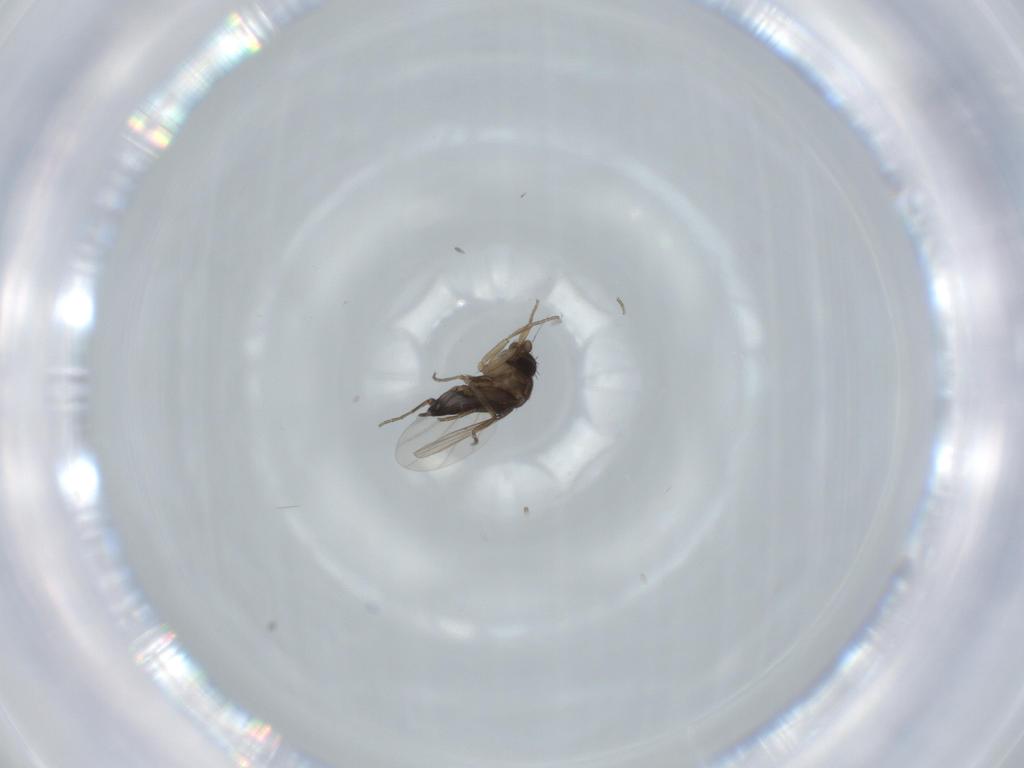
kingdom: Animalia
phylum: Arthropoda
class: Insecta
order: Diptera
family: Phoridae
